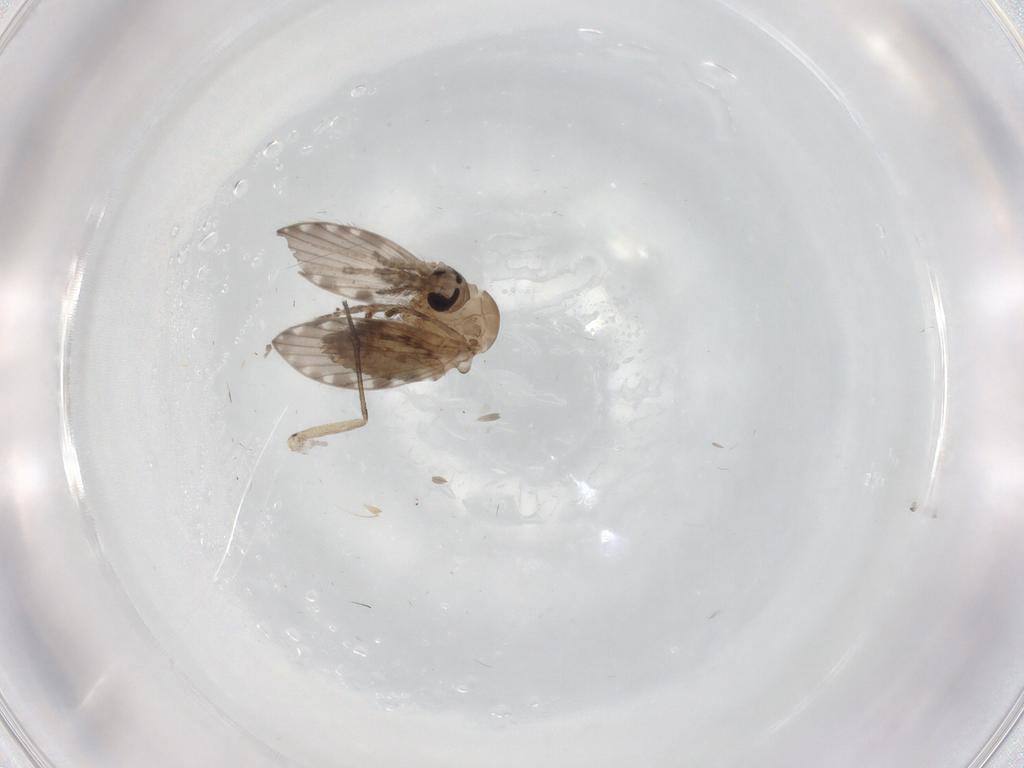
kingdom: Animalia
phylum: Arthropoda
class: Insecta
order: Diptera
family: Psychodidae
